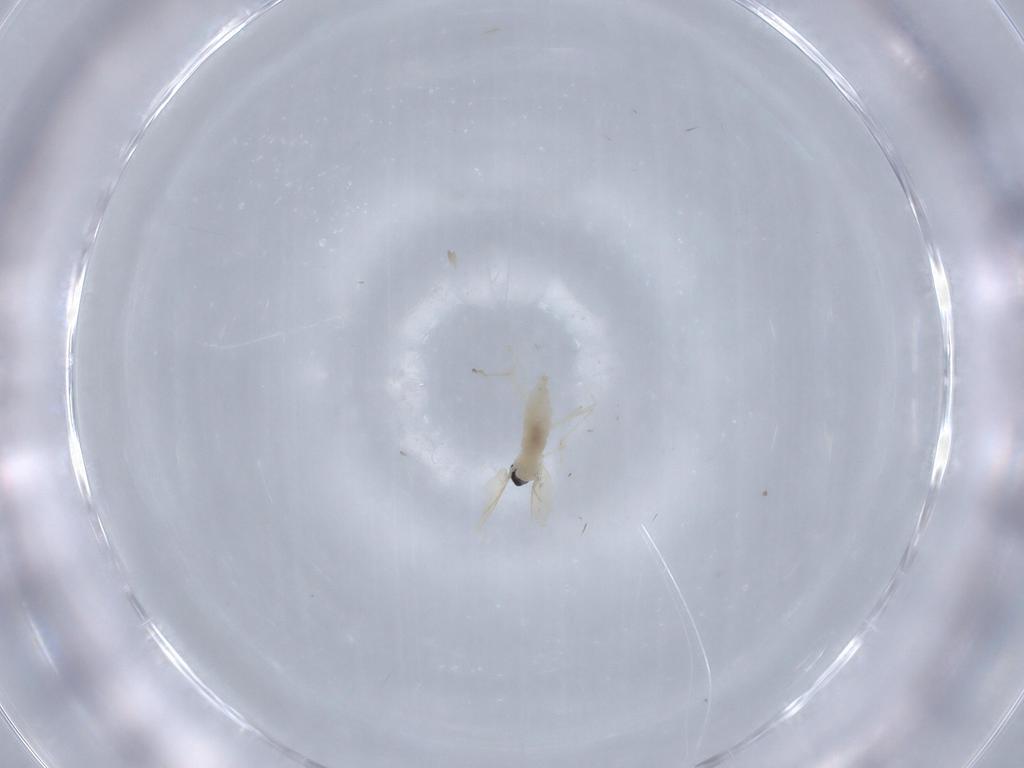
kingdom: Animalia
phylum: Arthropoda
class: Insecta
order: Diptera
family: Cecidomyiidae
